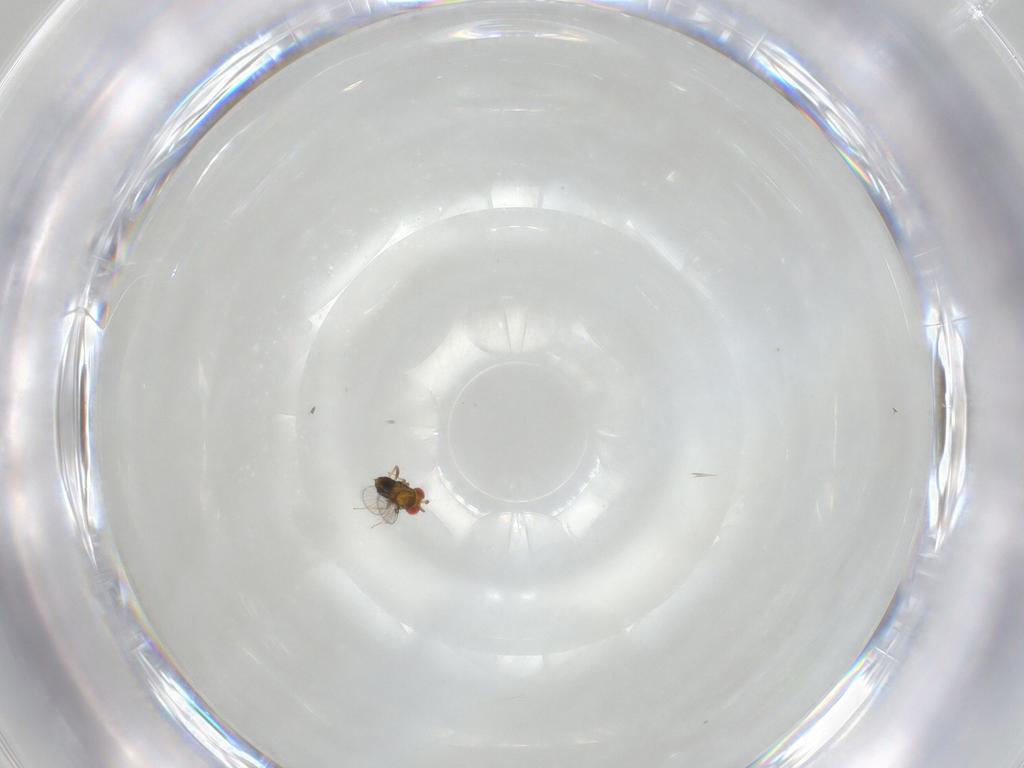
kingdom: Animalia
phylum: Arthropoda
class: Insecta
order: Hymenoptera
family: Trichogrammatidae
